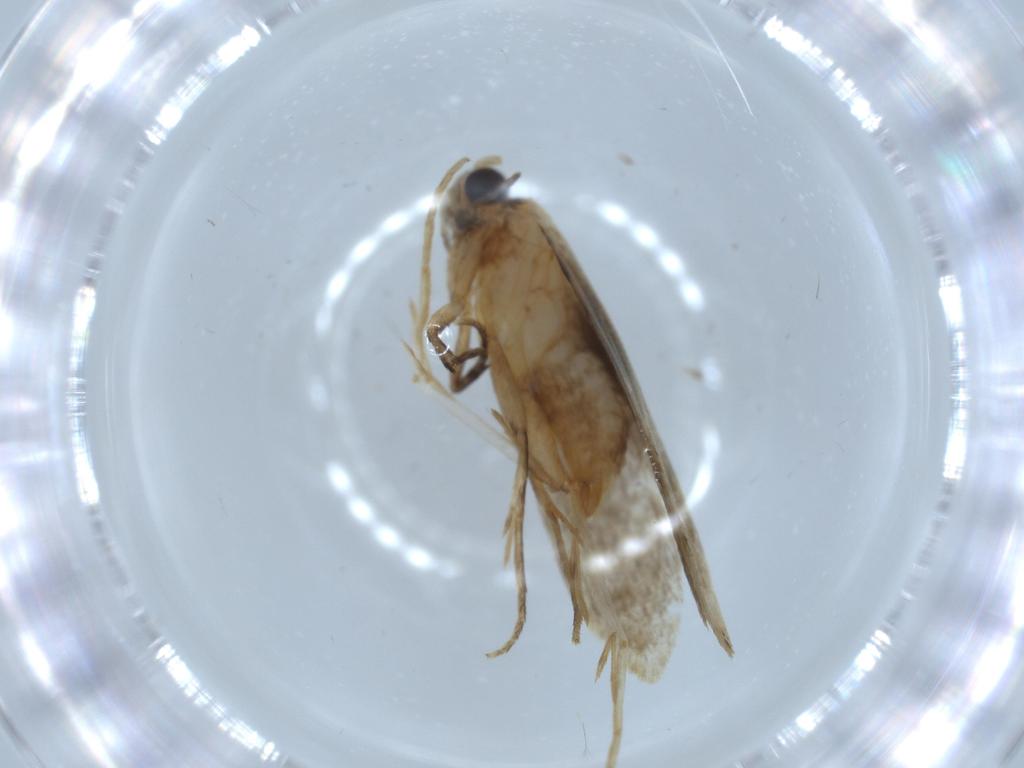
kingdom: Animalia
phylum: Arthropoda
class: Insecta
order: Lepidoptera
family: Tineidae
